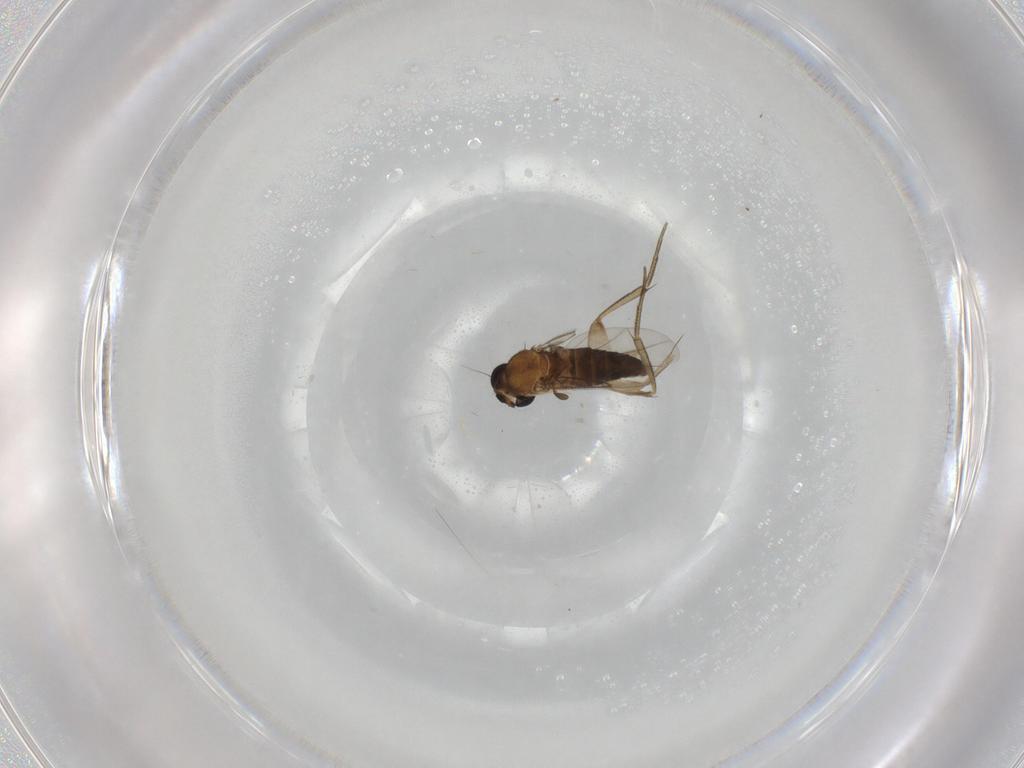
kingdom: Animalia
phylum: Arthropoda
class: Insecta
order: Diptera
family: Phoridae
